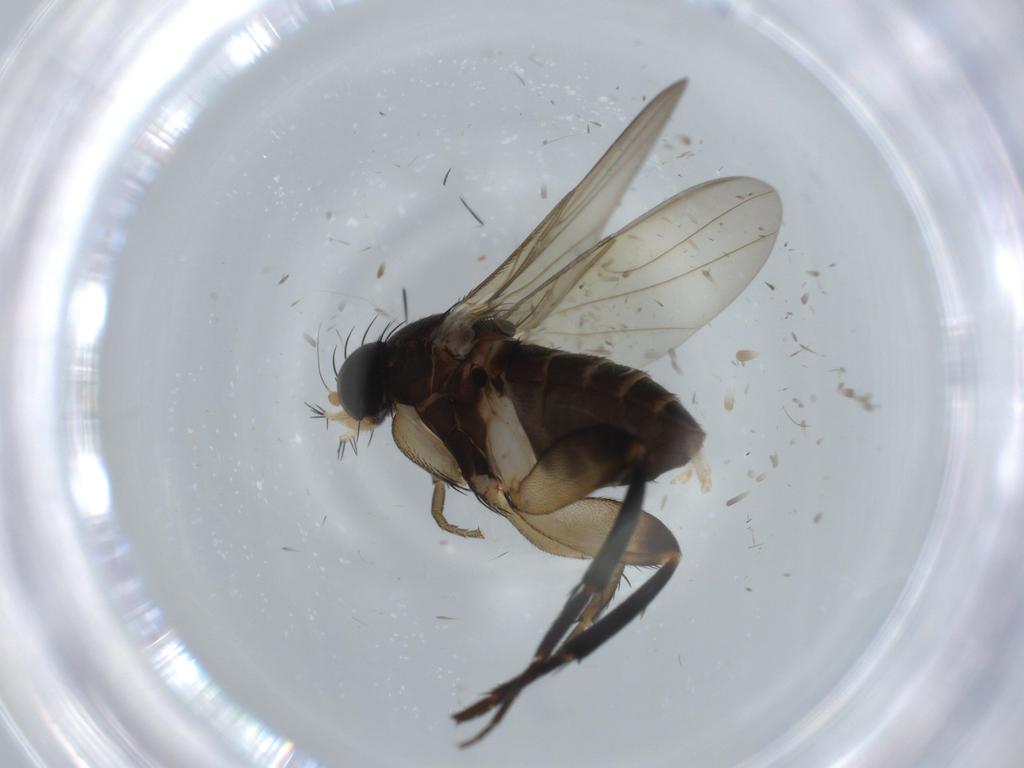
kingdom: Animalia
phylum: Arthropoda
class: Insecta
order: Diptera
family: Phoridae
